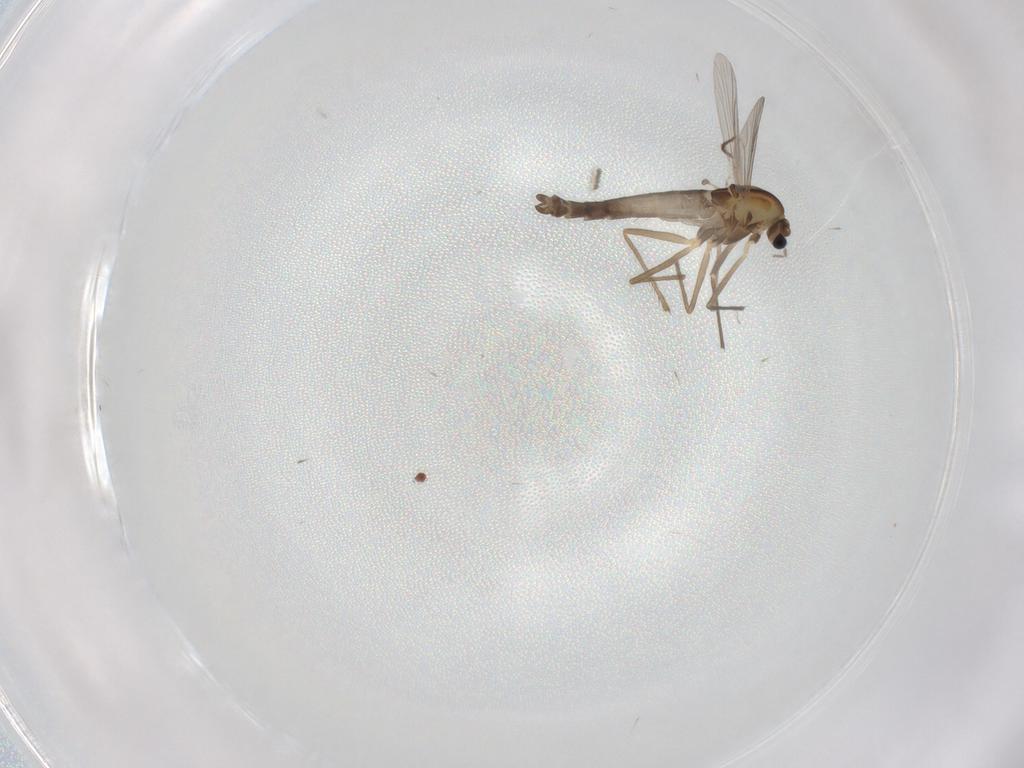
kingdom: Animalia
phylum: Arthropoda
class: Insecta
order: Diptera
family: Chironomidae
